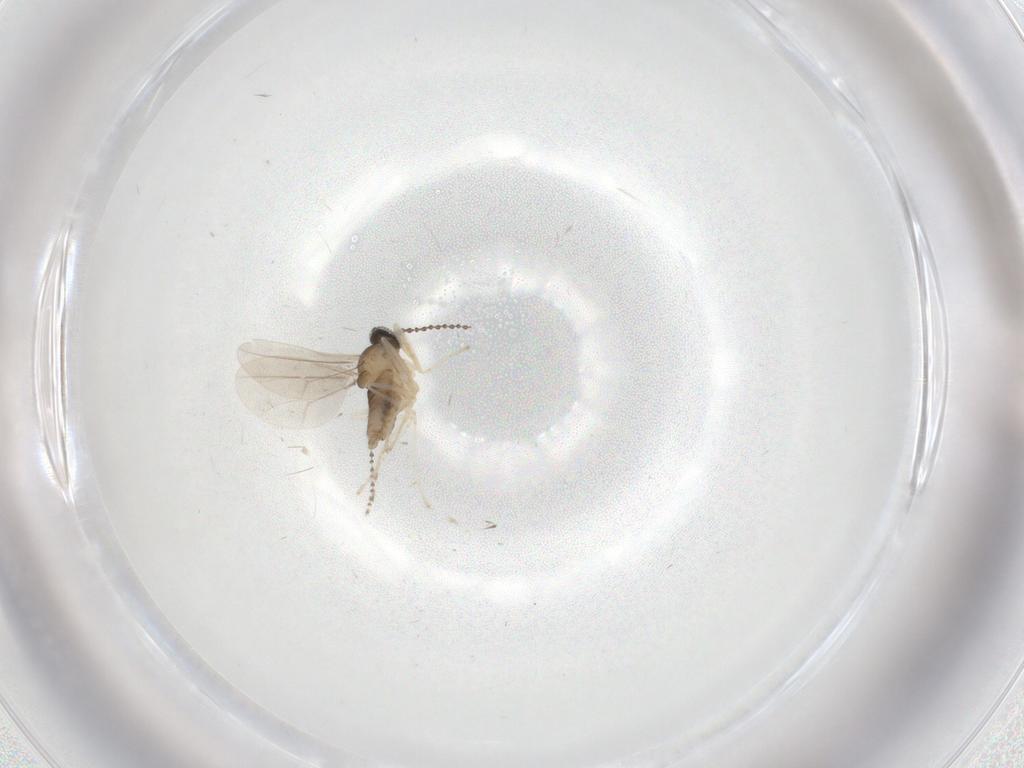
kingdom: Animalia
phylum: Arthropoda
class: Insecta
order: Diptera
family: Cecidomyiidae
